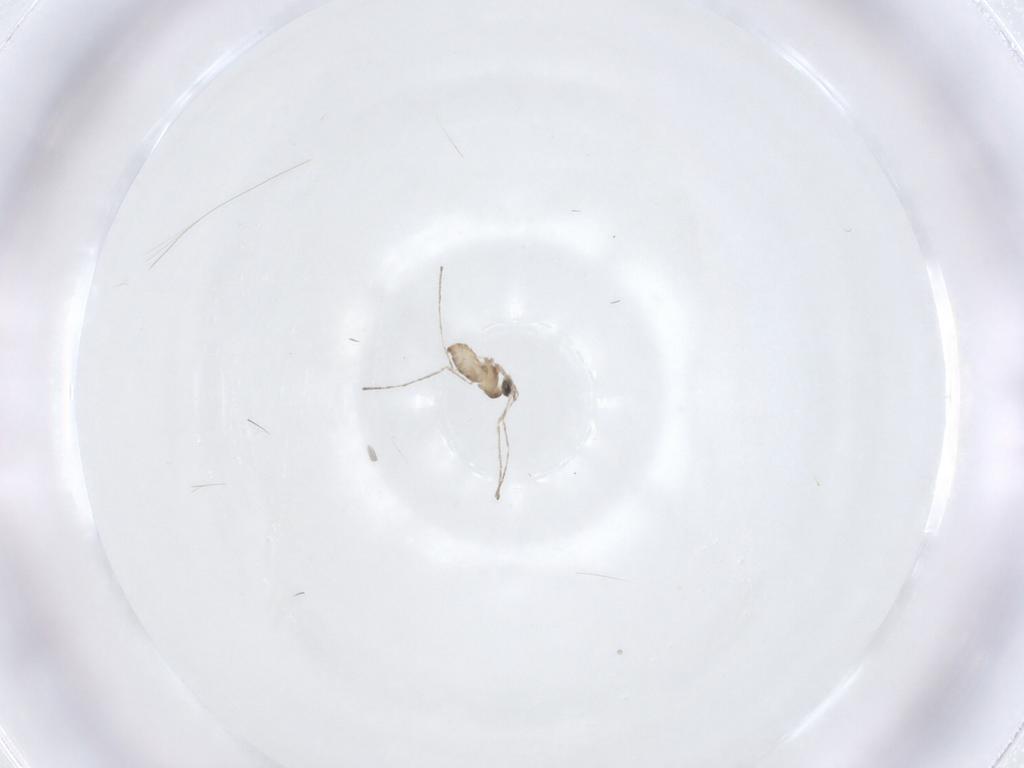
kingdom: Animalia
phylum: Arthropoda
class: Insecta
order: Diptera
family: Cecidomyiidae
